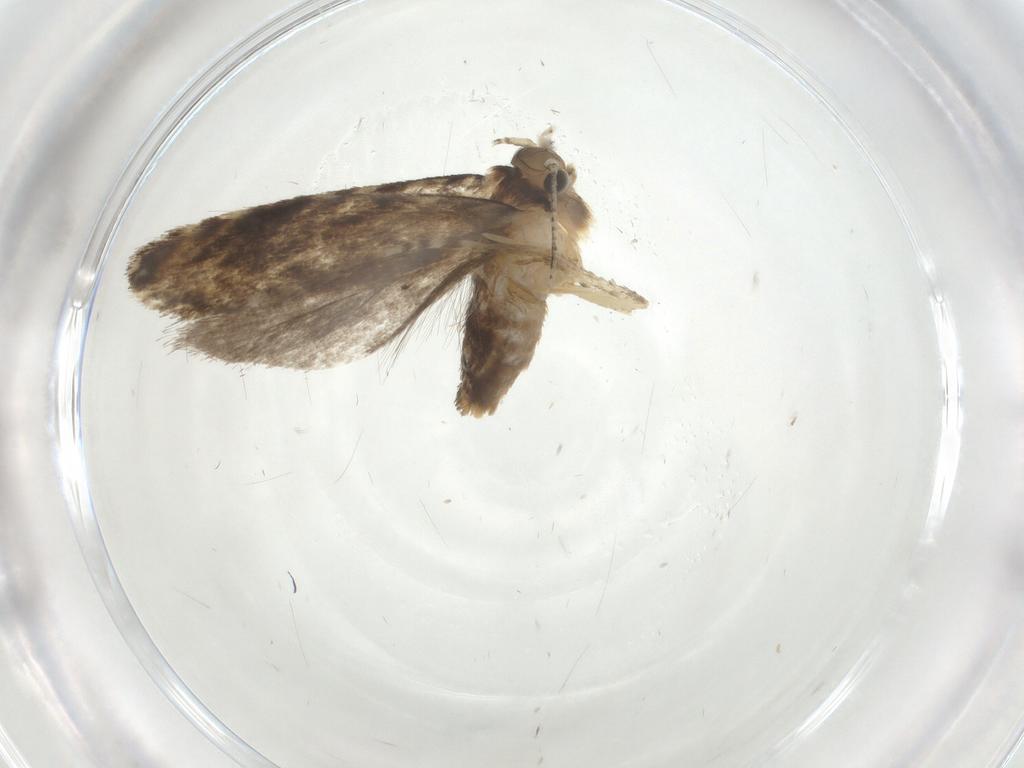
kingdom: Animalia
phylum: Arthropoda
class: Insecta
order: Lepidoptera
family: Tineidae
